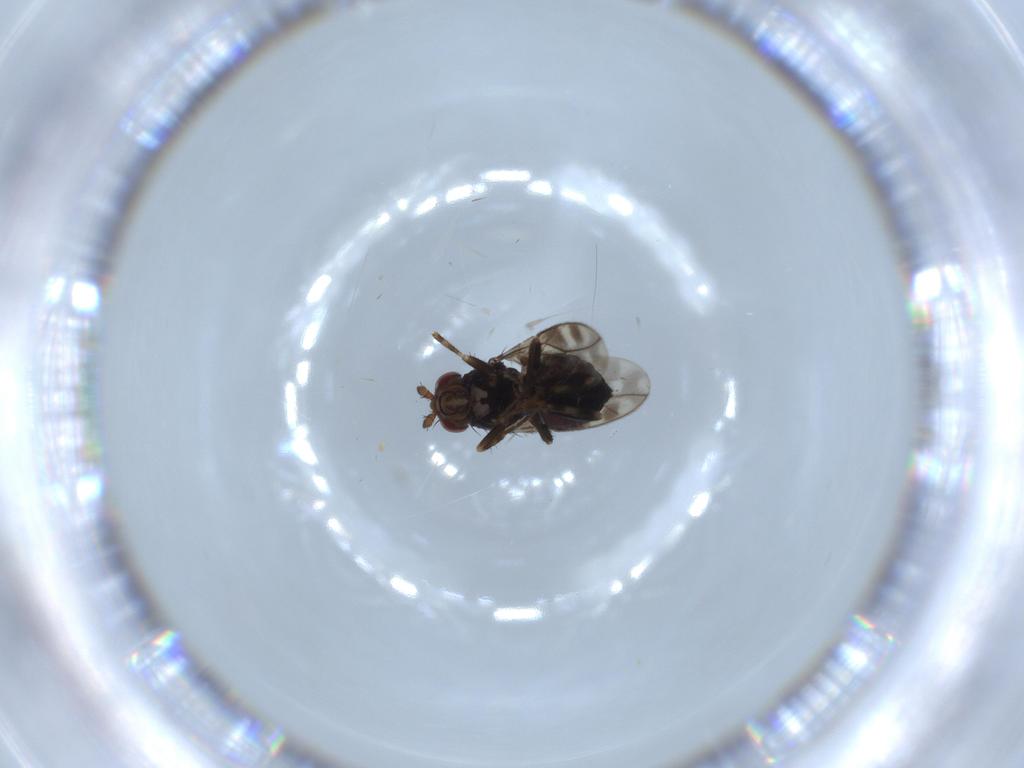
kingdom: Animalia
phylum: Arthropoda
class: Insecta
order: Diptera
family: Sphaeroceridae
